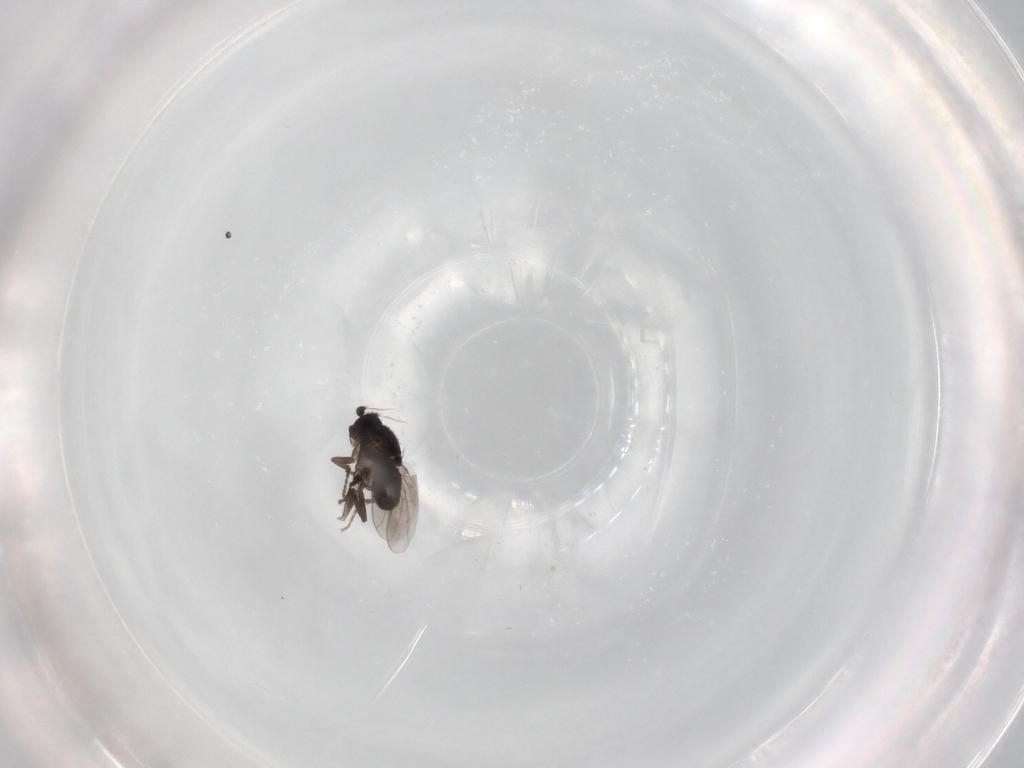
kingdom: Animalia
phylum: Arthropoda
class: Insecta
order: Diptera
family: Sphaeroceridae
